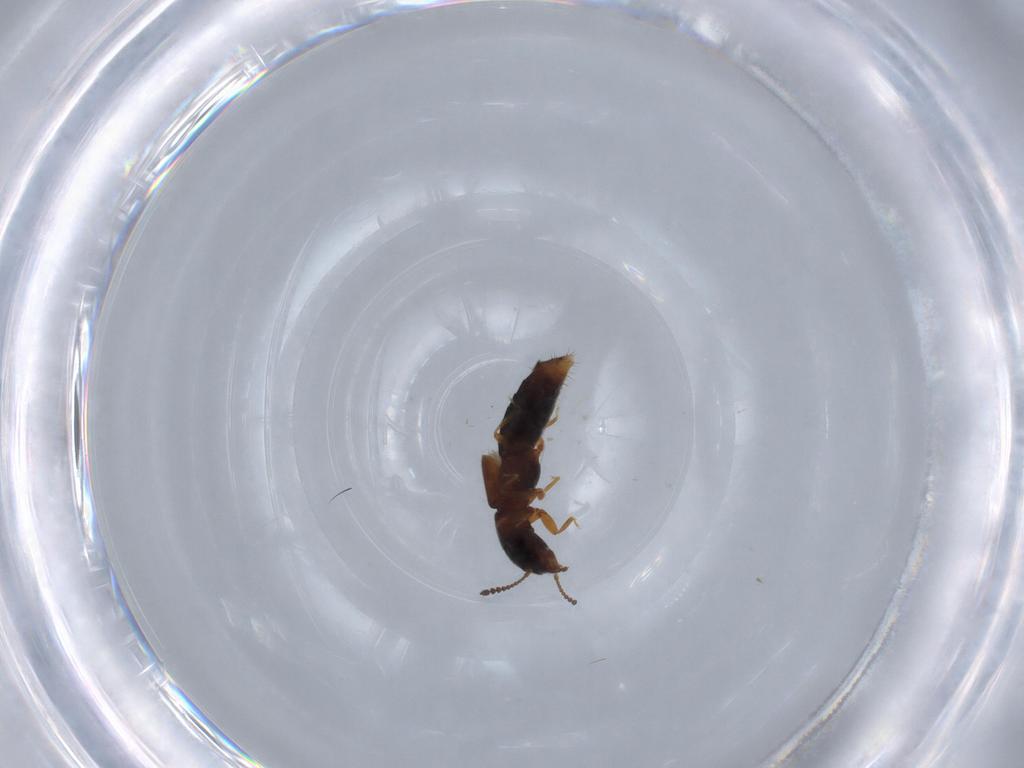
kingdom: Animalia
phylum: Arthropoda
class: Insecta
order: Coleoptera
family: Staphylinidae
